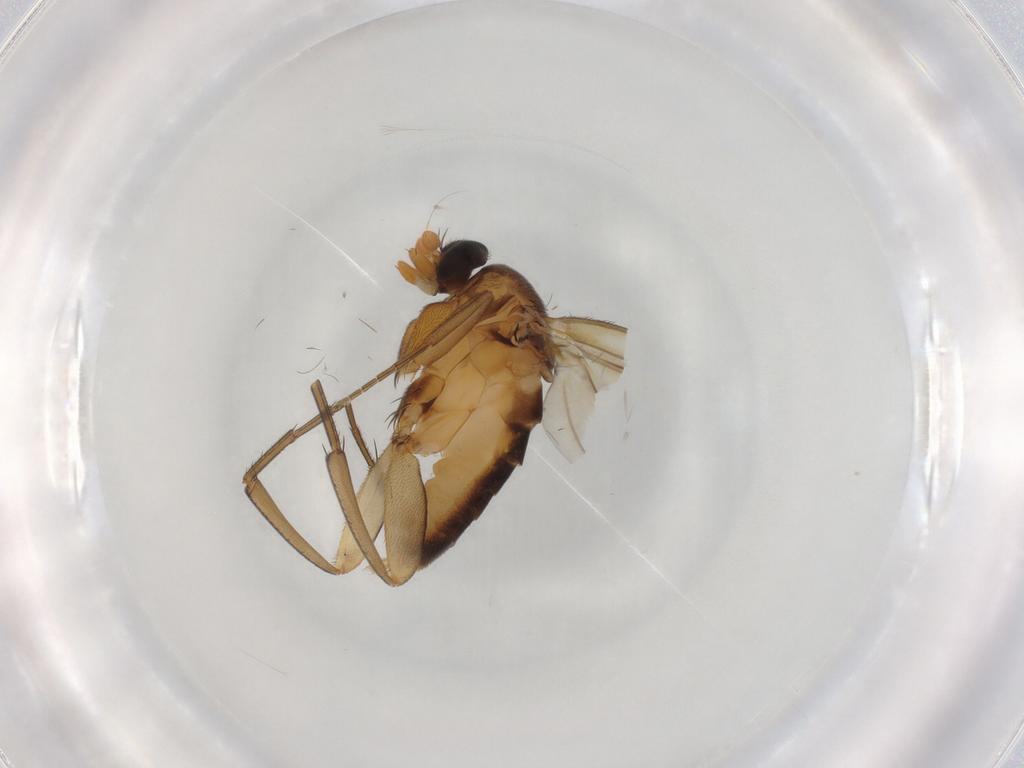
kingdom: Animalia
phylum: Arthropoda
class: Insecta
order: Diptera
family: Phoridae
